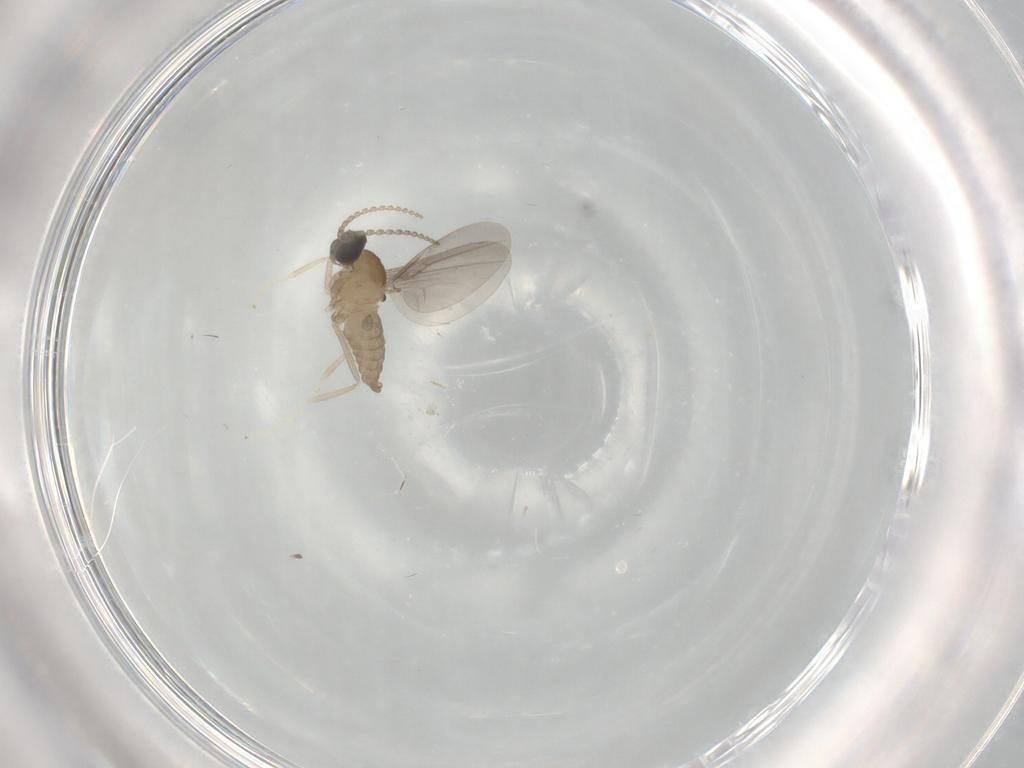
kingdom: Animalia
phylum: Arthropoda
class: Insecta
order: Diptera
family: Cecidomyiidae
